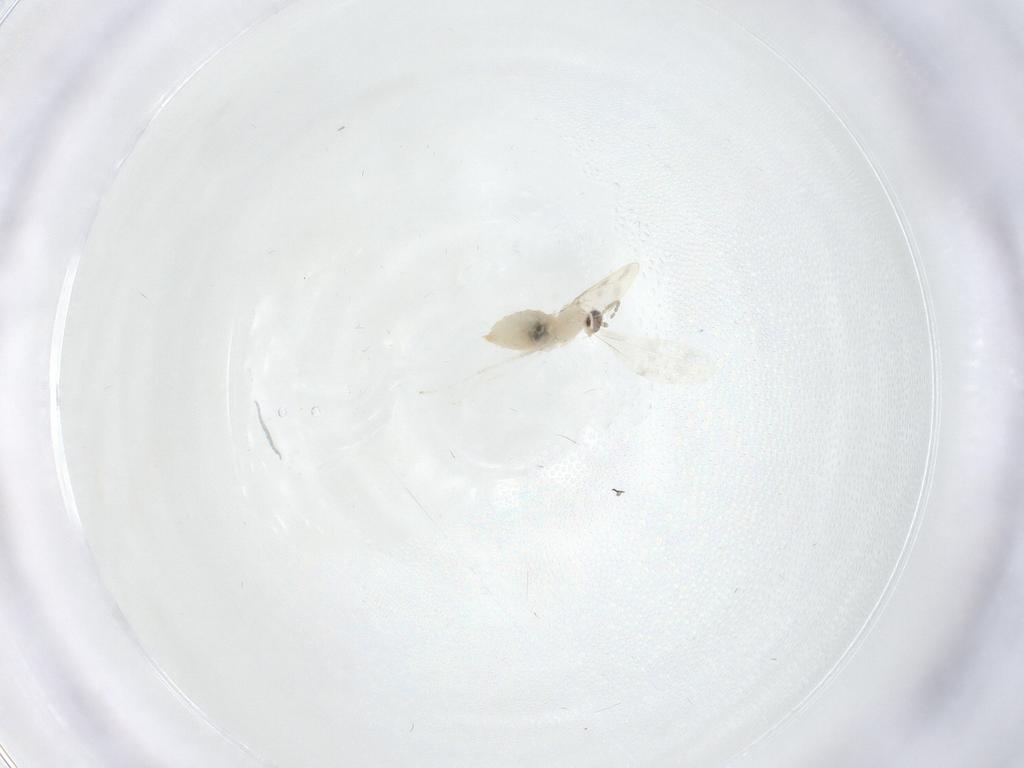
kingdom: Animalia
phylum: Arthropoda
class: Insecta
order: Diptera
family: Cecidomyiidae
